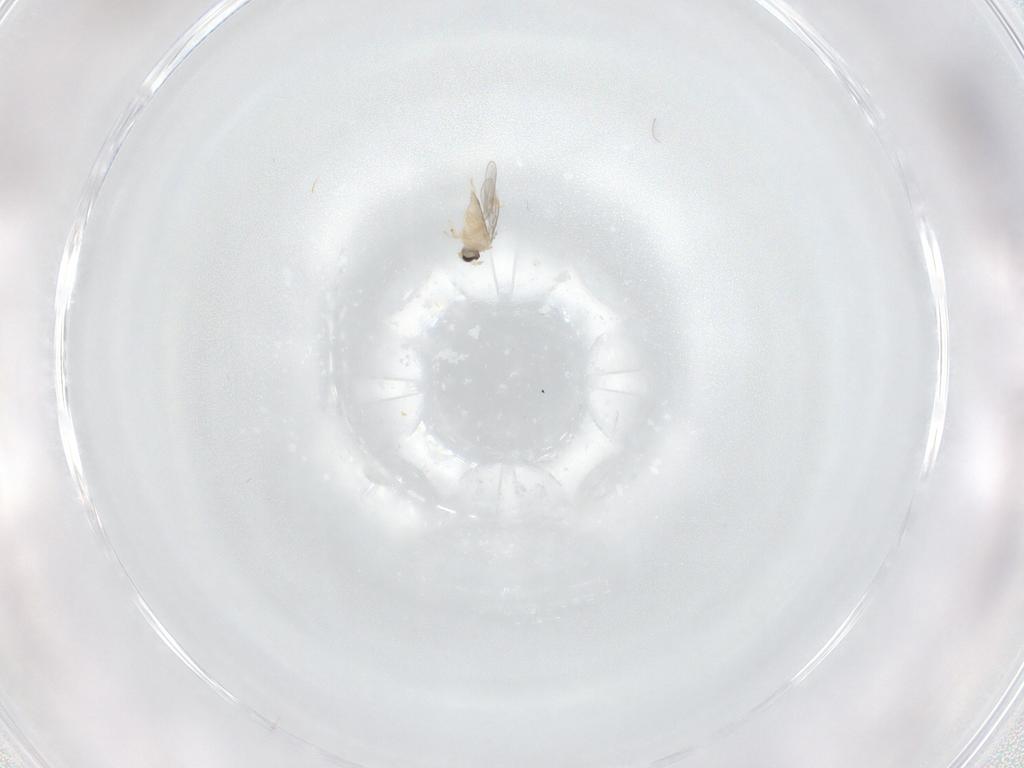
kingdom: Animalia
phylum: Arthropoda
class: Insecta
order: Diptera
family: Cecidomyiidae
